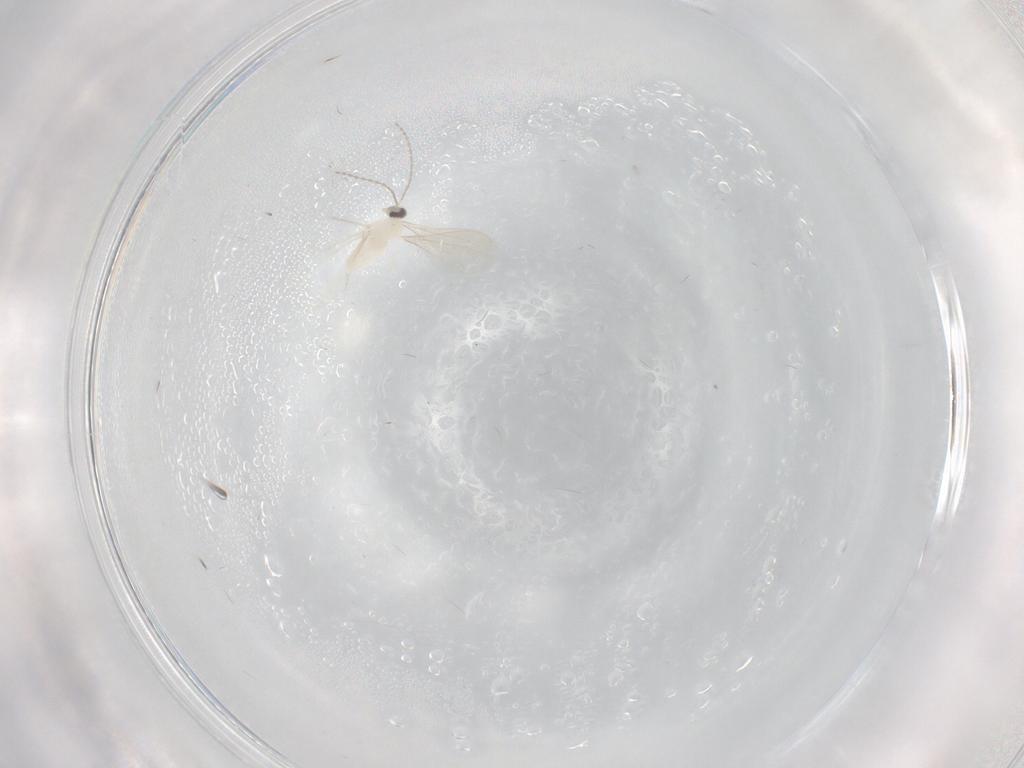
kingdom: Animalia
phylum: Arthropoda
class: Insecta
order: Diptera
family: Cecidomyiidae
